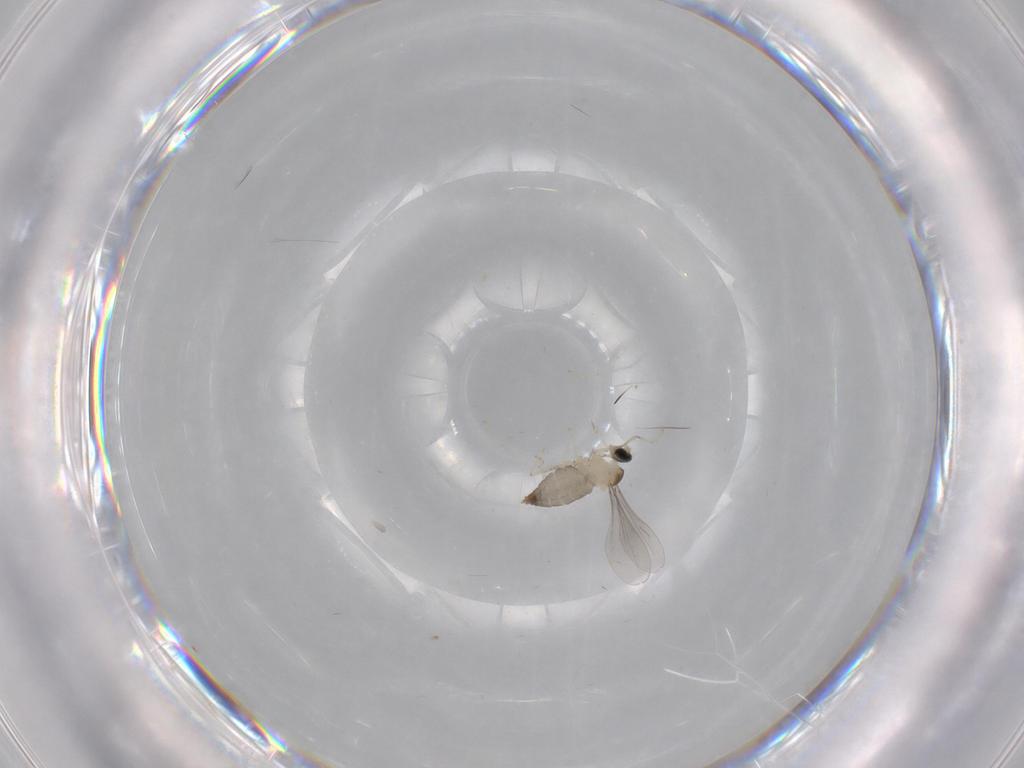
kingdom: Animalia
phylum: Arthropoda
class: Insecta
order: Diptera
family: Cecidomyiidae
